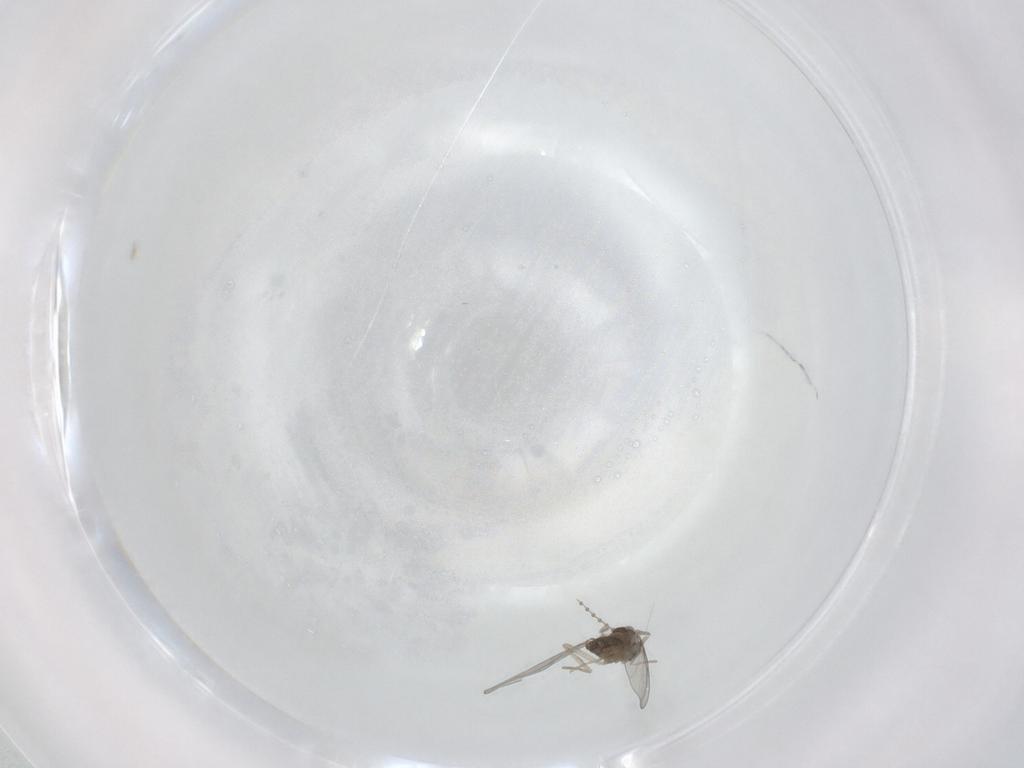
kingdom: Animalia
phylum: Arthropoda
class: Insecta
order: Diptera
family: Cecidomyiidae
